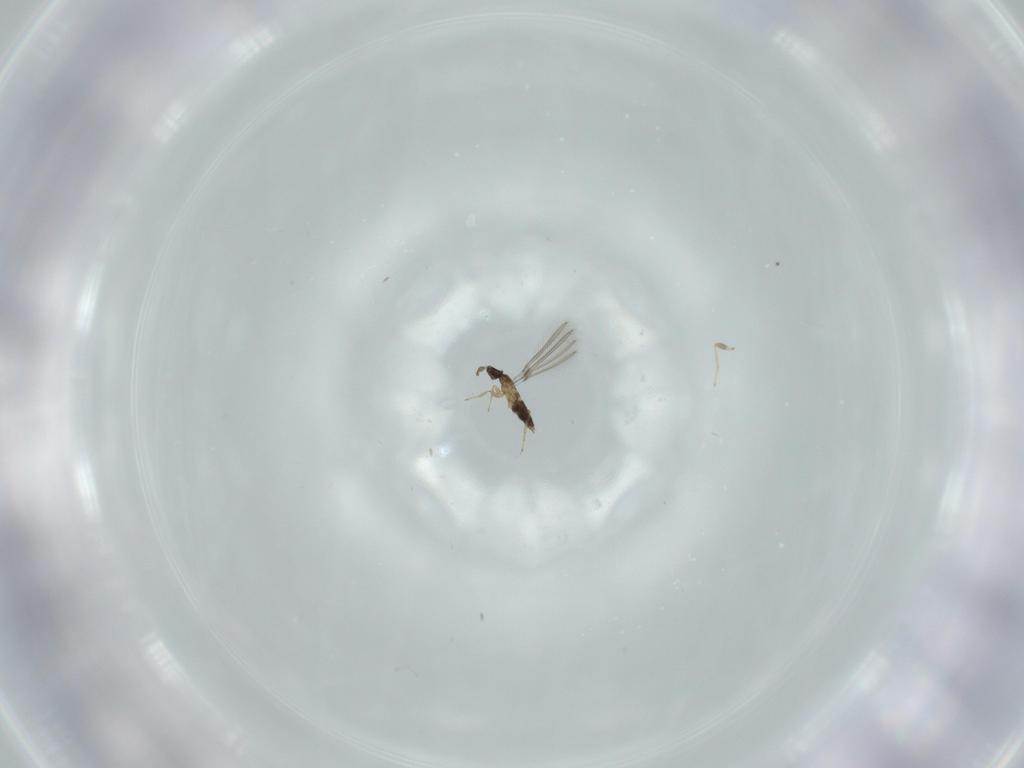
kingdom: Animalia
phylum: Arthropoda
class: Insecta
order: Hymenoptera
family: Mymaridae
